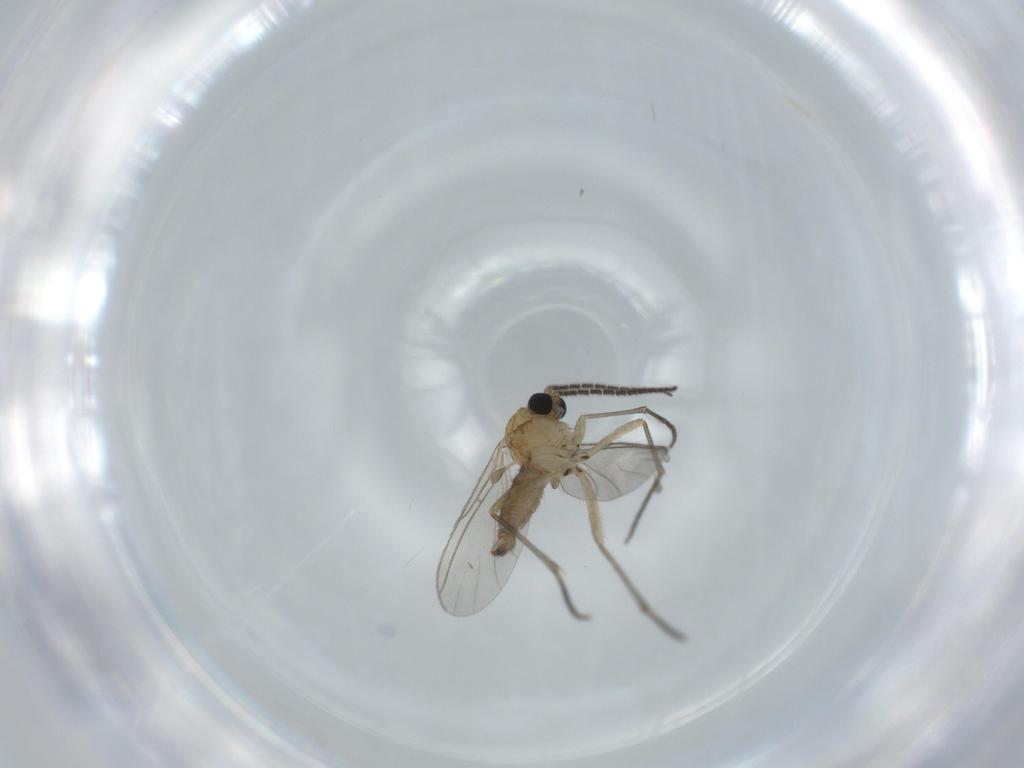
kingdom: Animalia
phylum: Arthropoda
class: Insecta
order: Diptera
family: Sciaridae
